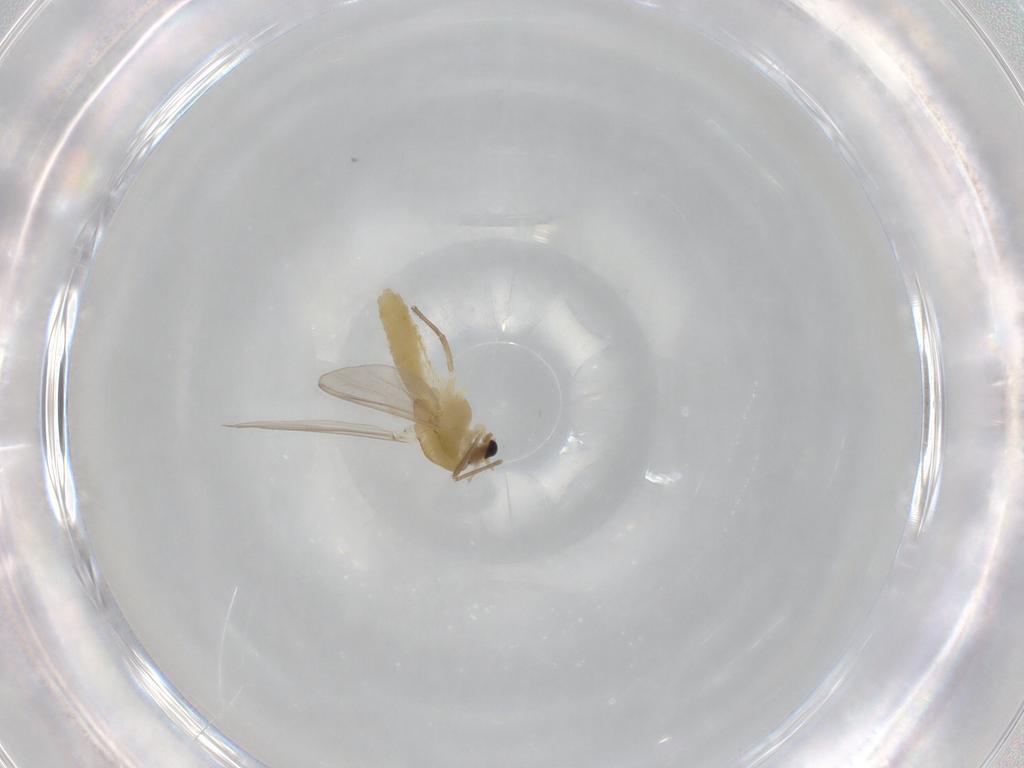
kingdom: Animalia
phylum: Arthropoda
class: Insecta
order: Diptera
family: Chironomidae
